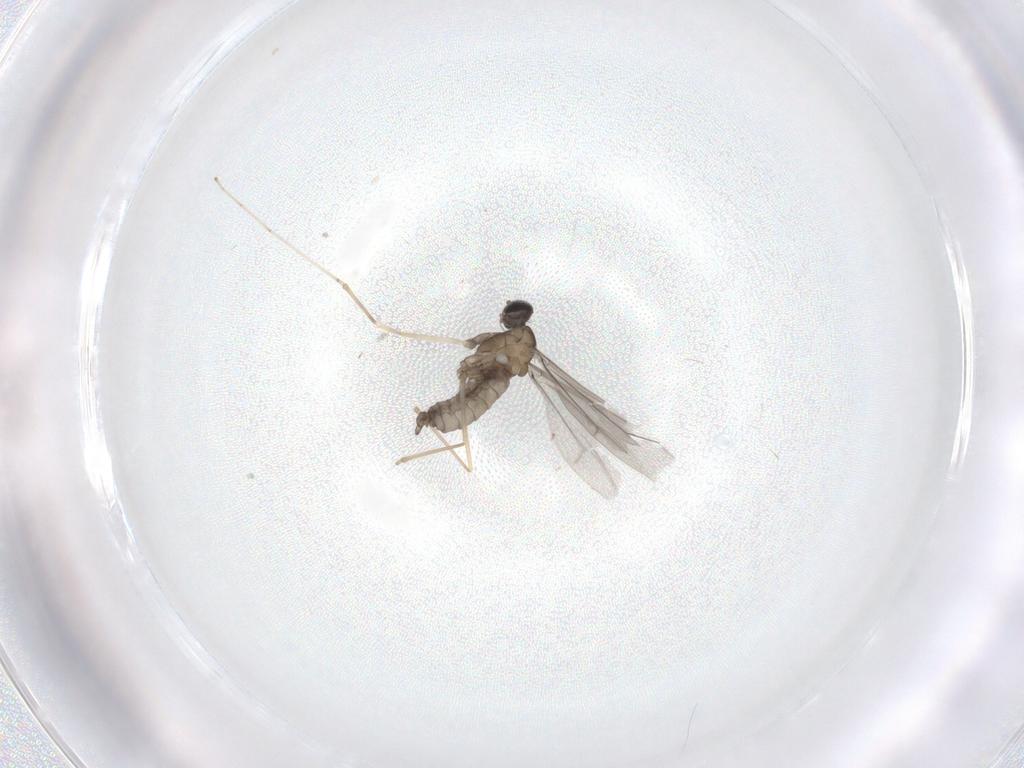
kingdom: Animalia
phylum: Arthropoda
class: Insecta
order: Diptera
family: Cecidomyiidae
